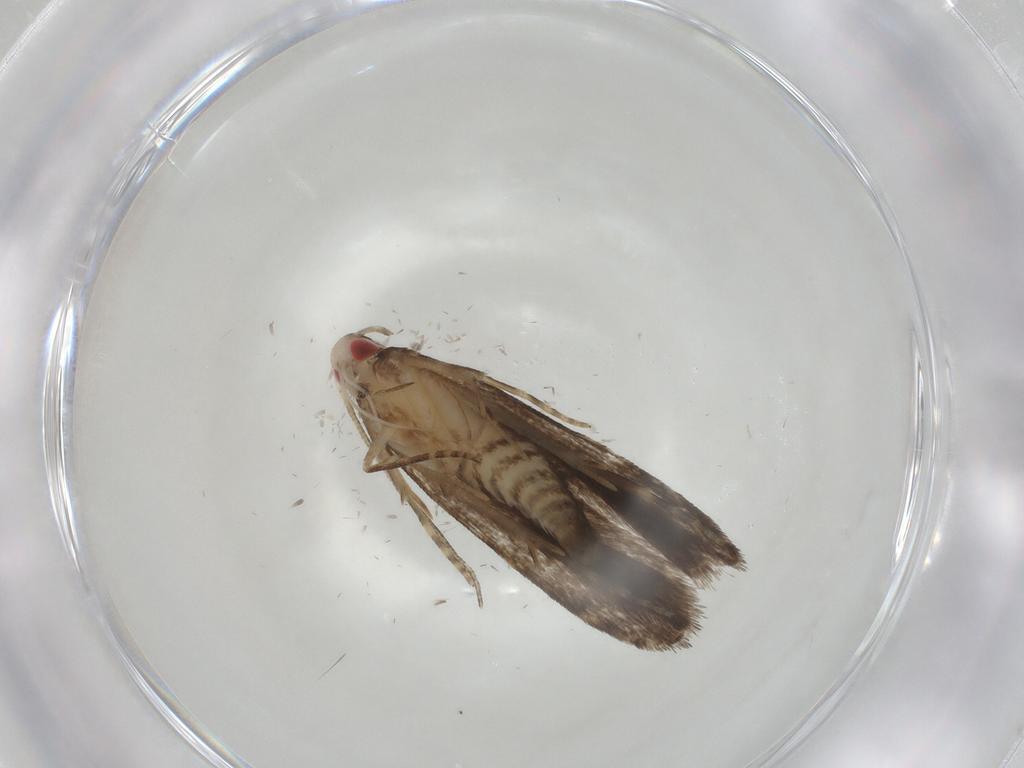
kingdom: Animalia
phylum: Arthropoda
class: Insecta
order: Lepidoptera
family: Gelechiidae
